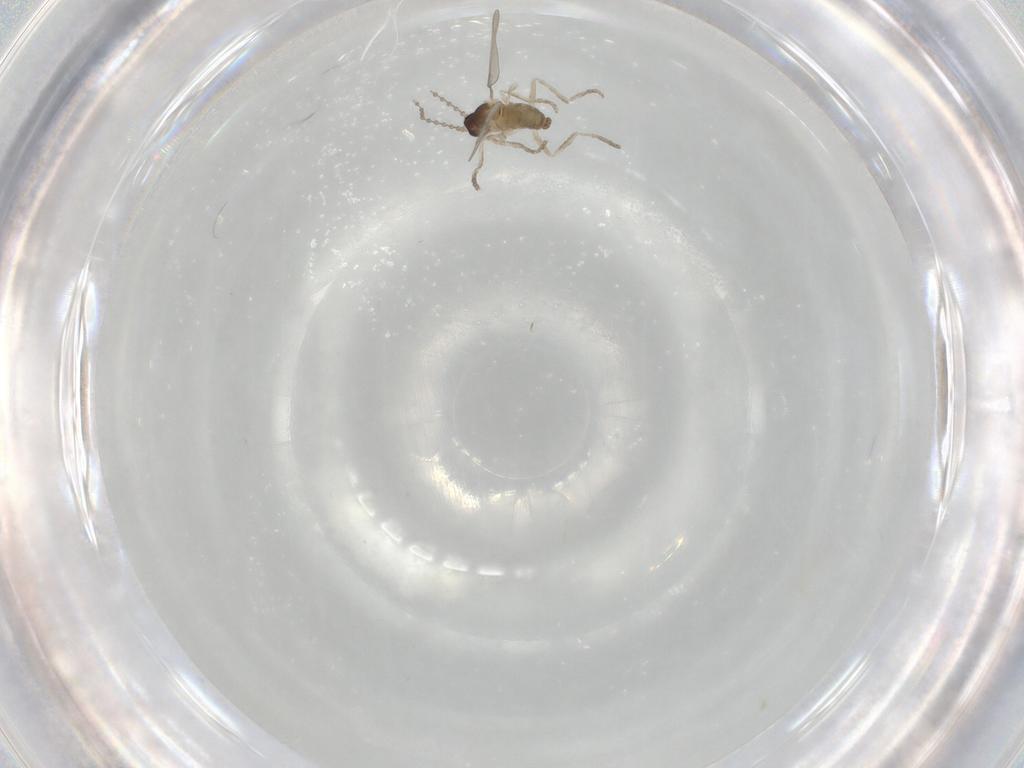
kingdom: Animalia
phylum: Arthropoda
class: Insecta
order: Diptera
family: Cecidomyiidae
